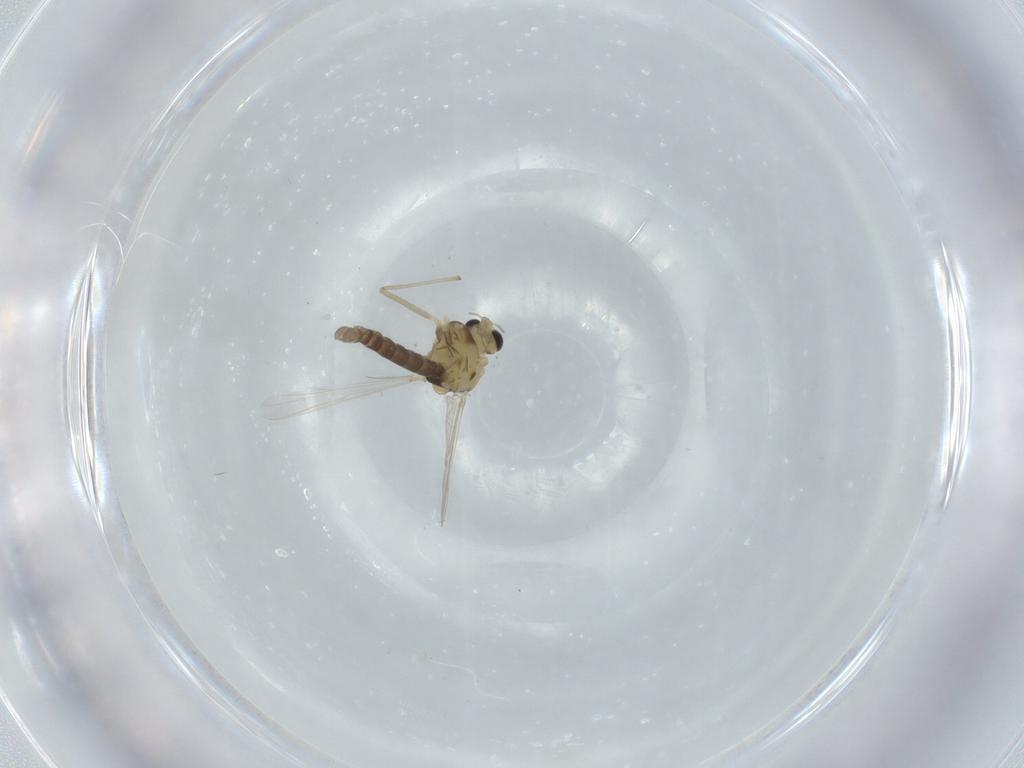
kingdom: Animalia
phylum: Arthropoda
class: Insecta
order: Diptera
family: Chironomidae
